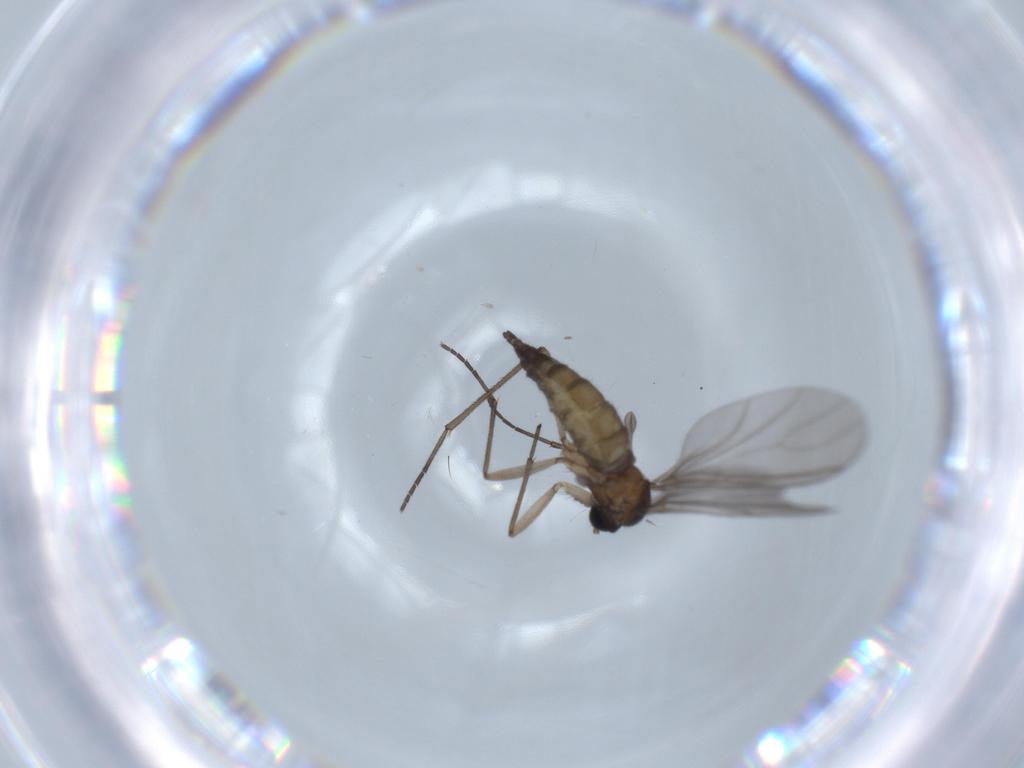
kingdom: Animalia
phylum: Arthropoda
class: Insecta
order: Diptera
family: Sciaridae
